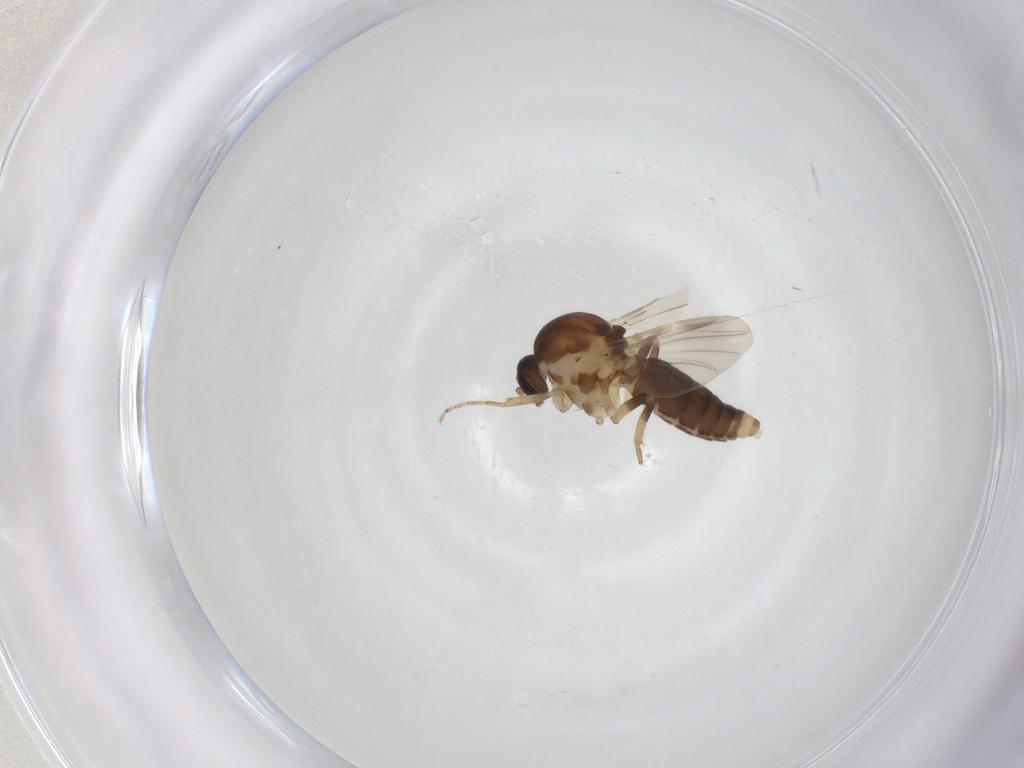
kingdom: Animalia
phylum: Arthropoda
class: Insecta
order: Diptera
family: Ceratopogonidae
